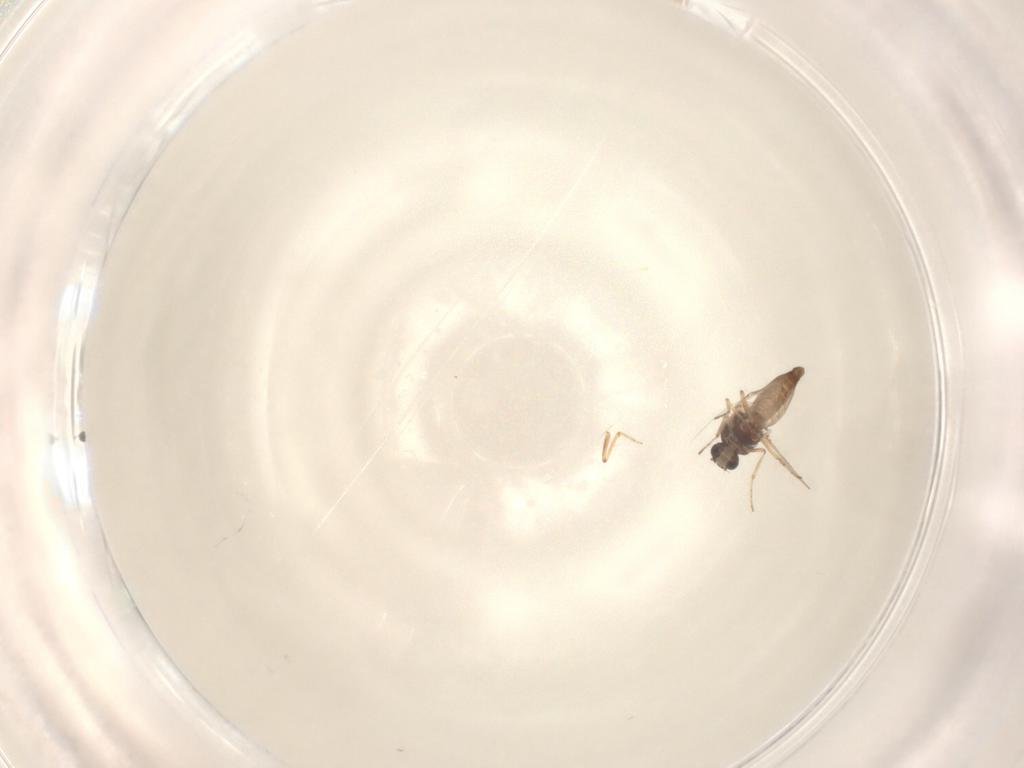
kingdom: Animalia
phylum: Arthropoda
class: Insecta
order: Diptera
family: Ceratopogonidae
